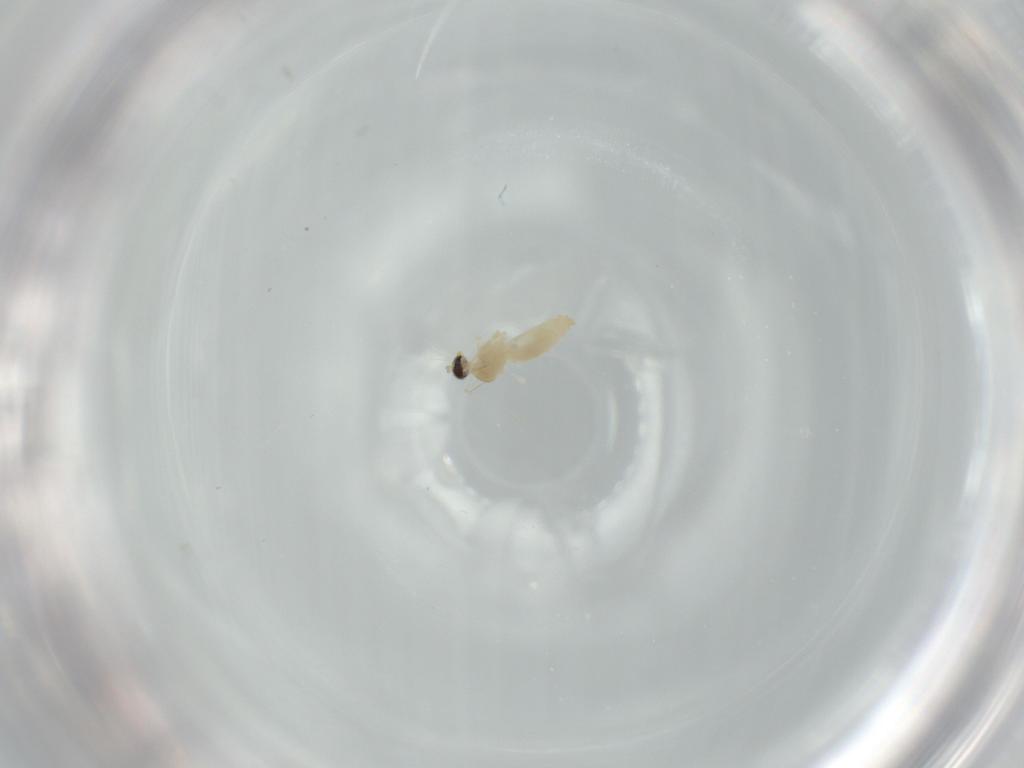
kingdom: Animalia
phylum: Arthropoda
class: Insecta
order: Diptera
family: Cecidomyiidae
